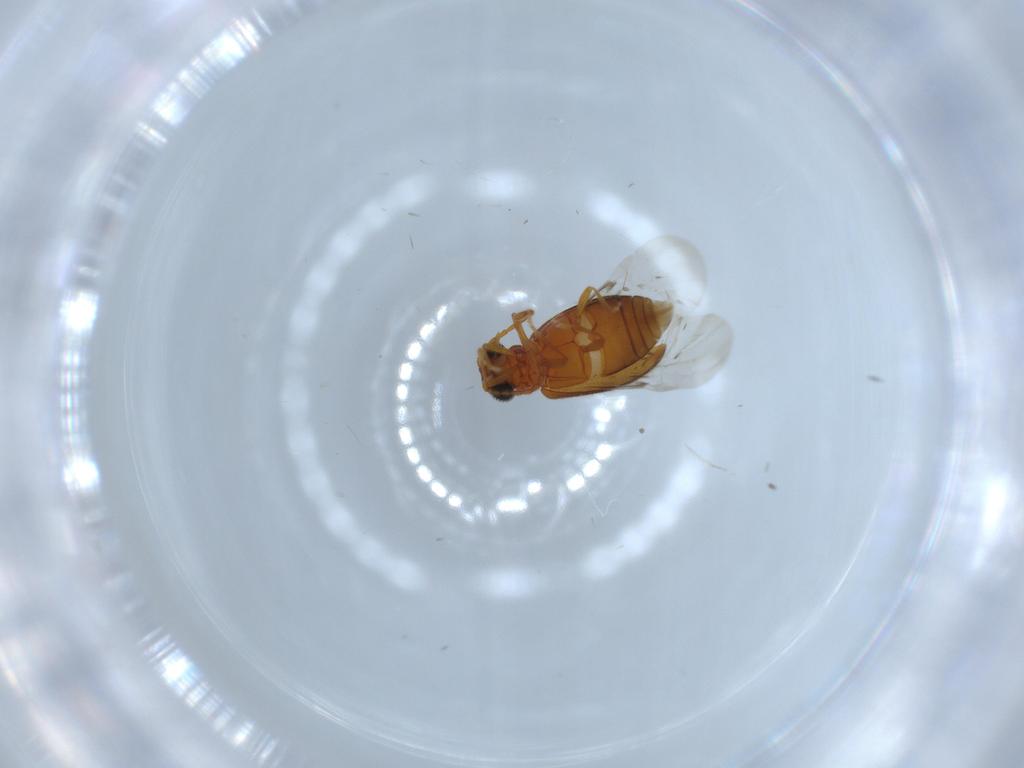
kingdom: Animalia
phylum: Arthropoda
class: Insecta
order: Coleoptera
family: Aderidae
